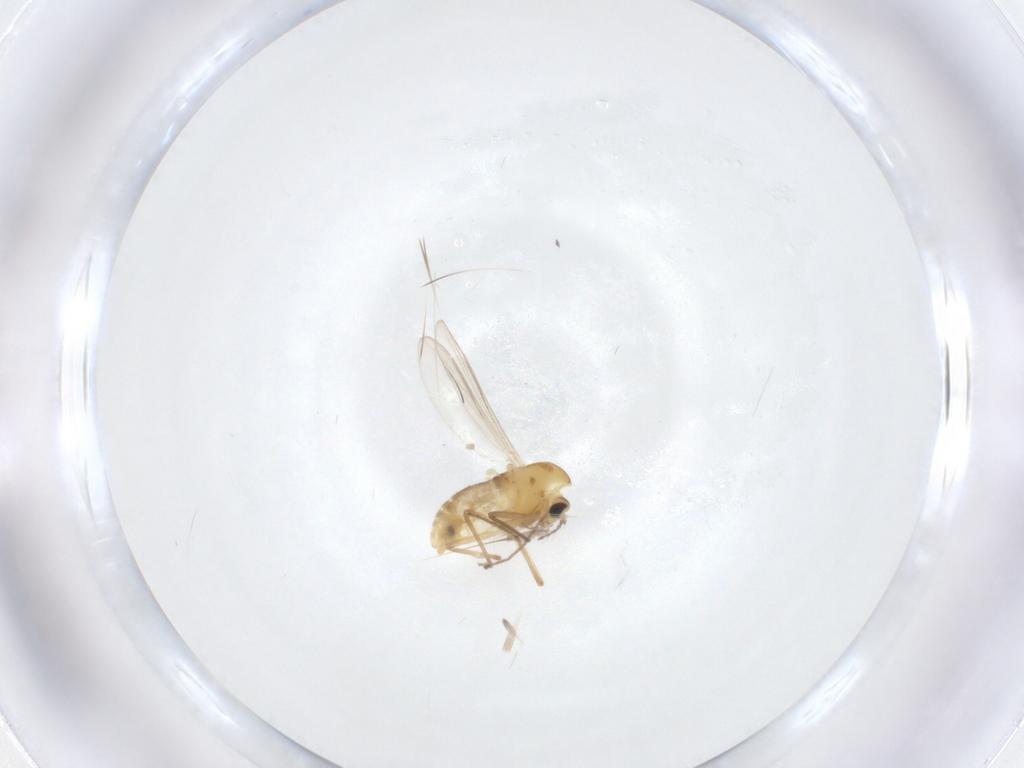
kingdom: Animalia
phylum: Arthropoda
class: Insecta
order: Diptera
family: Chironomidae
